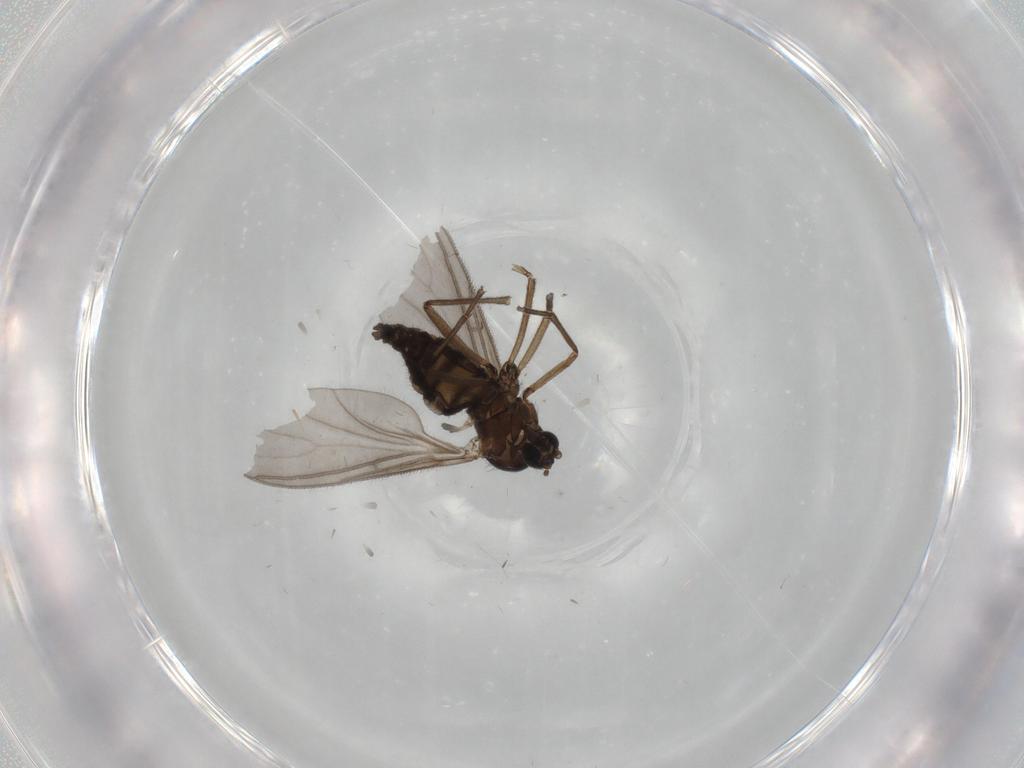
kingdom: Animalia
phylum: Arthropoda
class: Insecta
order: Diptera
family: Sciaridae
